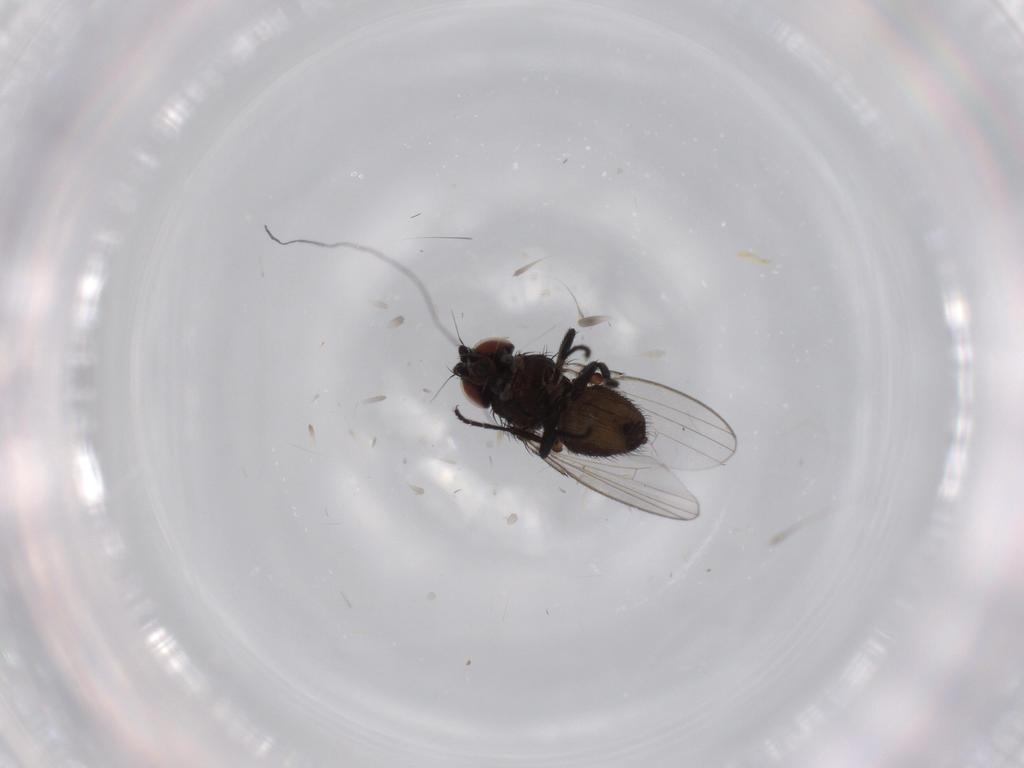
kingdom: Animalia
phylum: Arthropoda
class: Insecta
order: Diptera
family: Milichiidae
